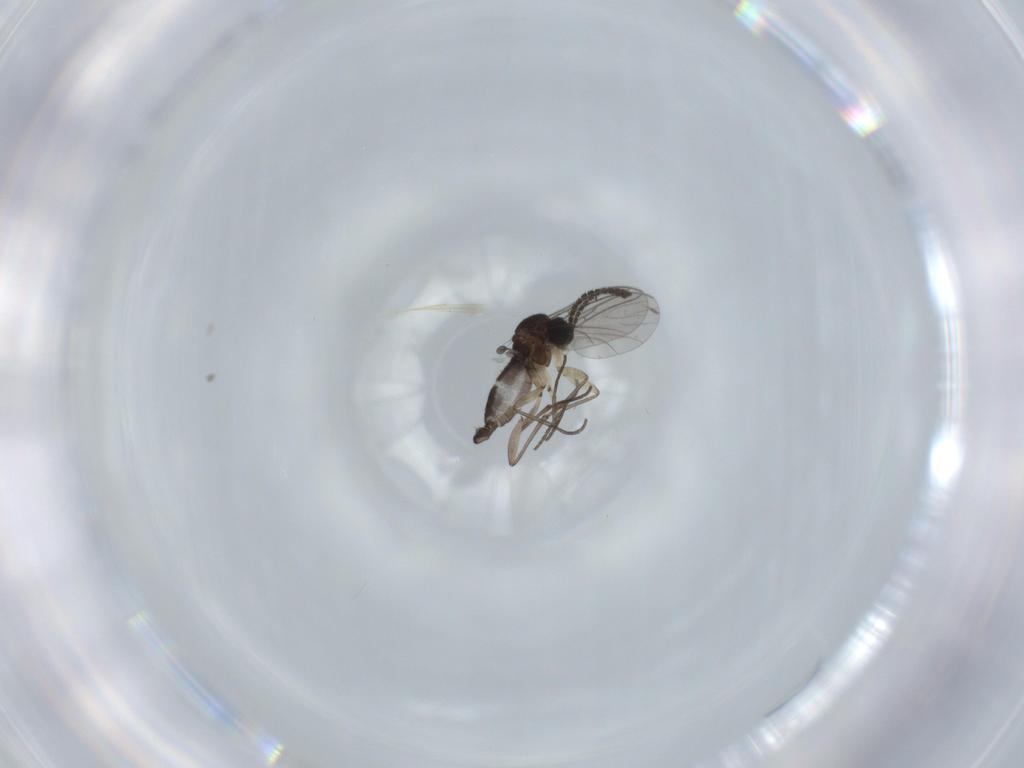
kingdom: Animalia
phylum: Arthropoda
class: Insecta
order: Diptera
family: Sciaridae
